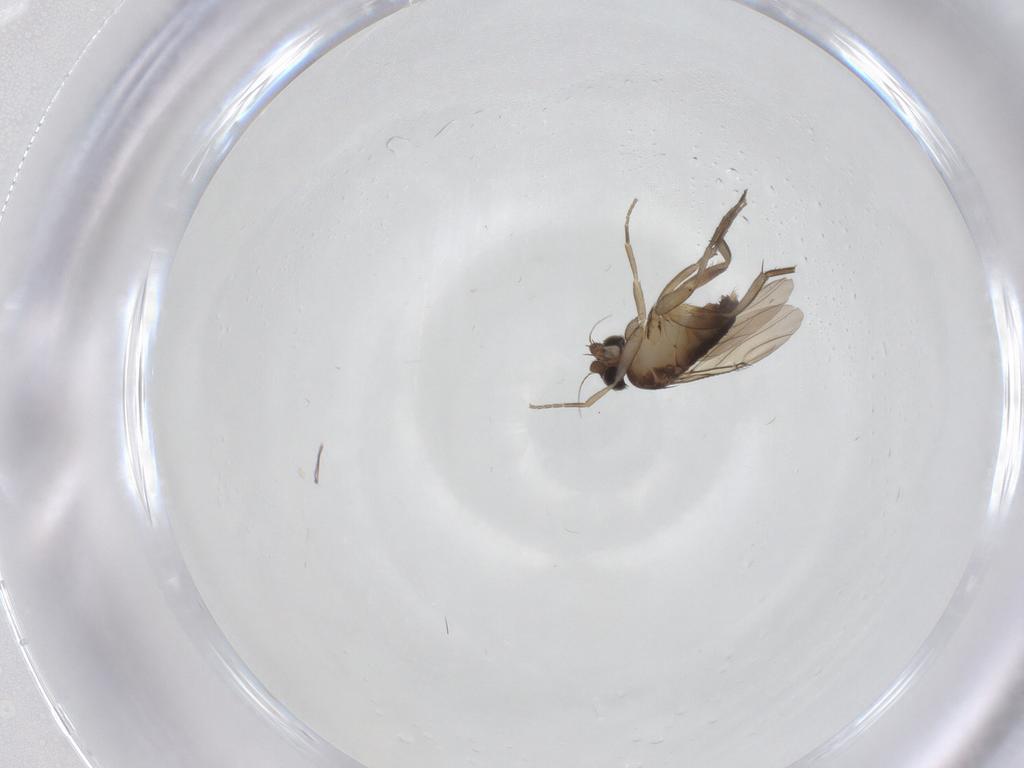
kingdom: Animalia
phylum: Arthropoda
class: Insecta
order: Diptera
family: Phoridae
